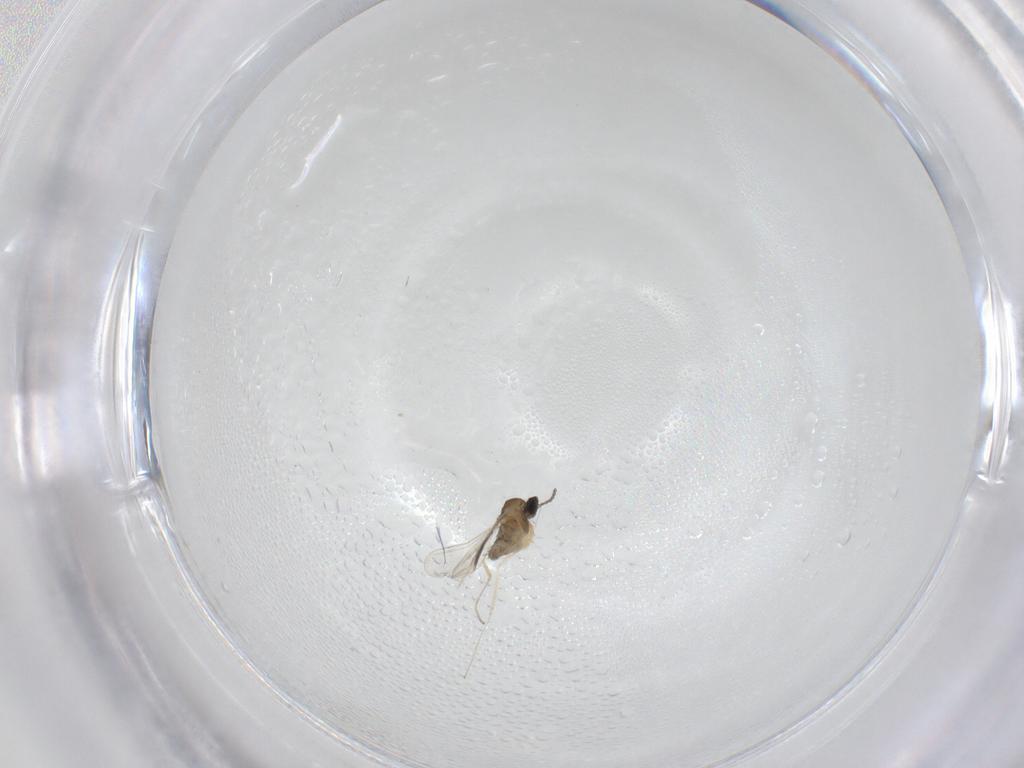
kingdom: Animalia
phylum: Arthropoda
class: Insecta
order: Diptera
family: Cecidomyiidae
